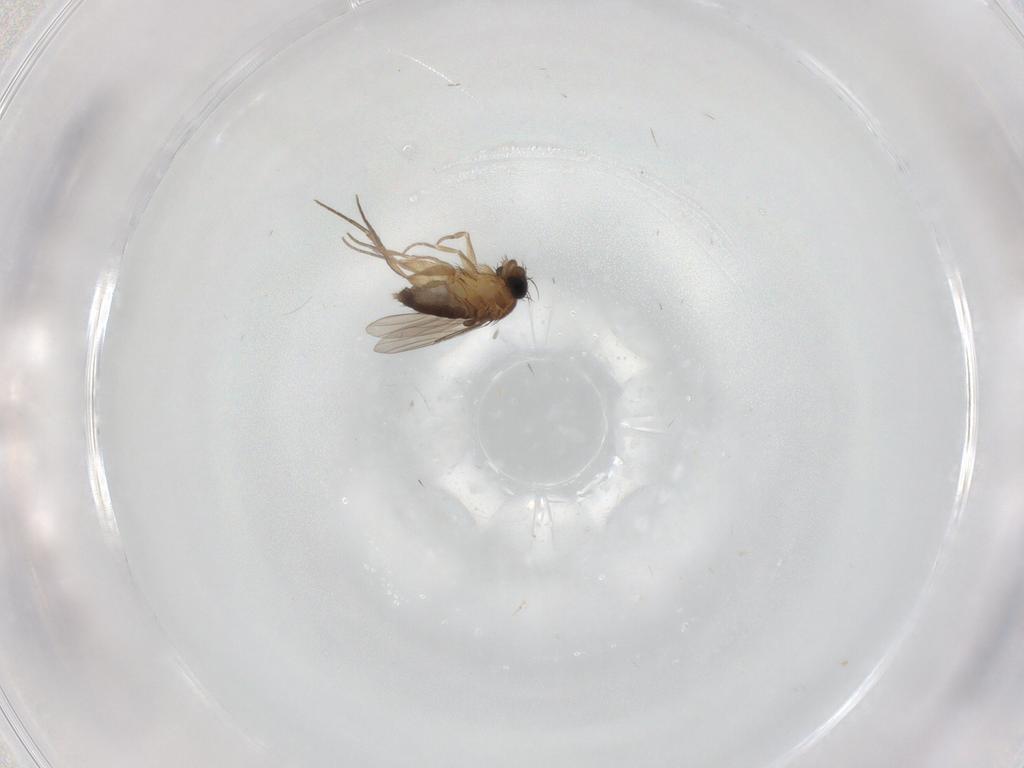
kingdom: Animalia
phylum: Arthropoda
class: Insecta
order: Diptera
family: Phoridae
